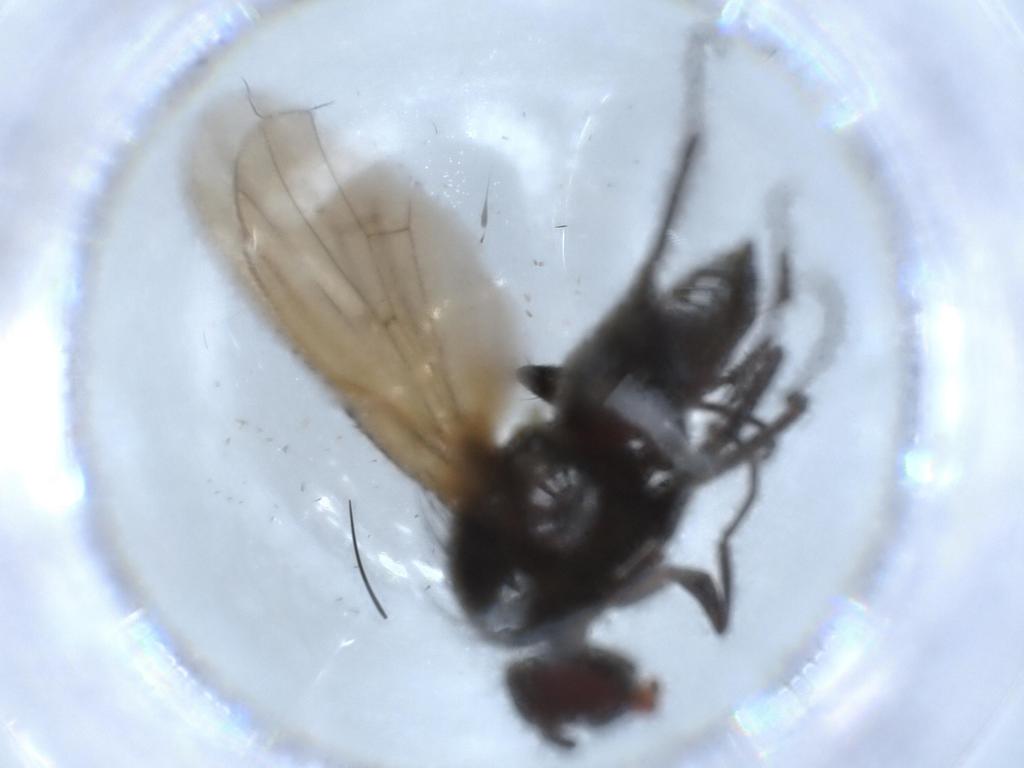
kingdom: Animalia
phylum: Arthropoda
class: Insecta
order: Diptera
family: Anthomyiidae
